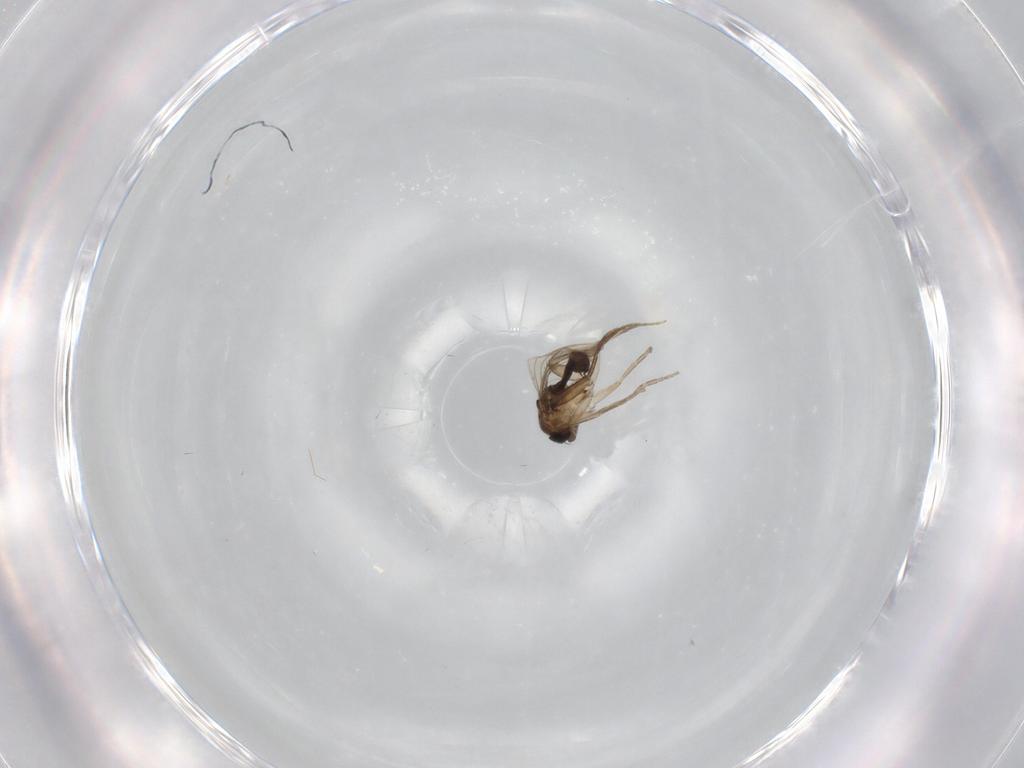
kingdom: Animalia
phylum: Arthropoda
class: Insecta
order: Diptera
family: Phoridae
